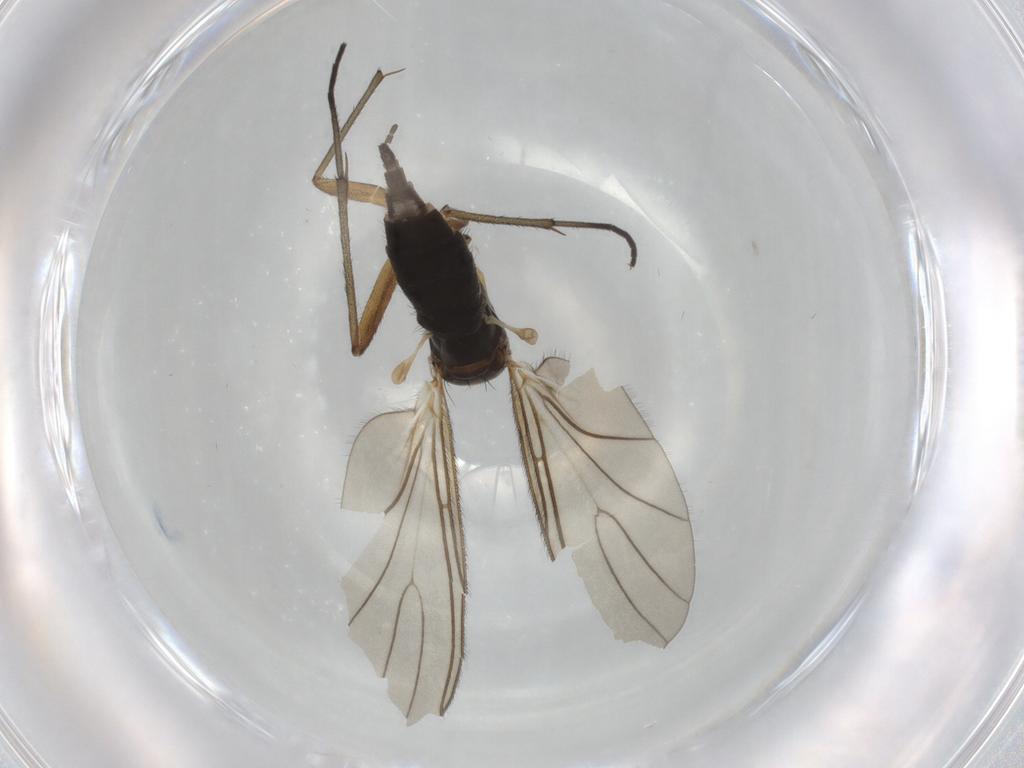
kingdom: Animalia
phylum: Arthropoda
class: Insecta
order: Diptera
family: Sciaridae
